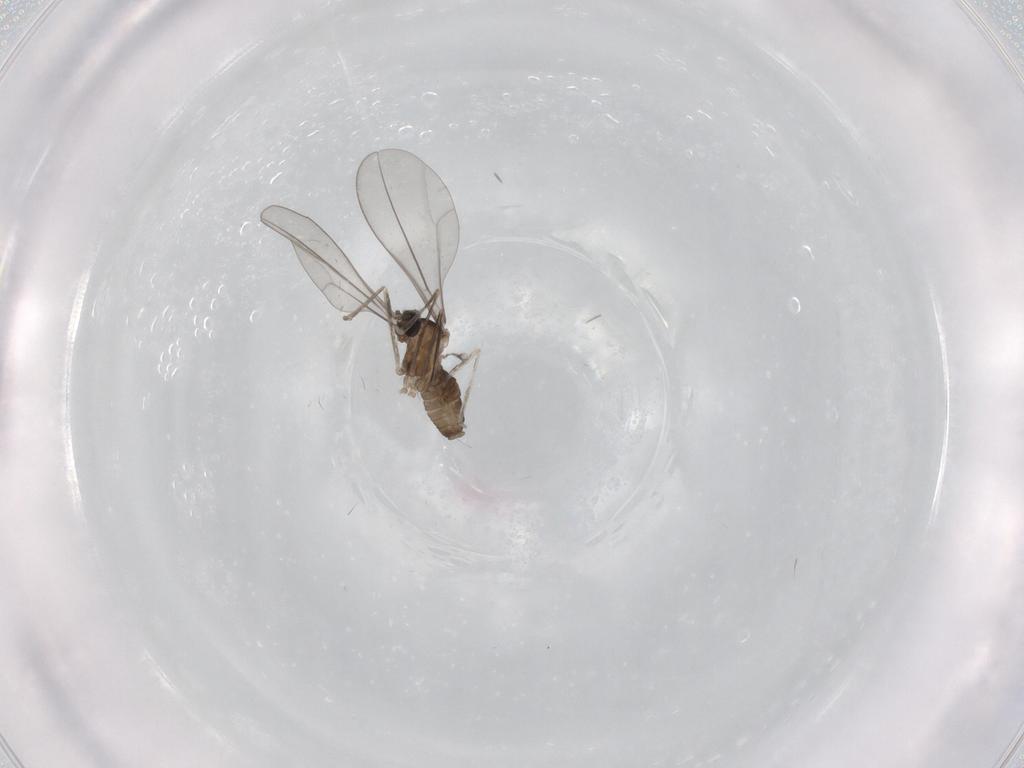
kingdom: Animalia
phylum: Arthropoda
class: Insecta
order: Diptera
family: Cecidomyiidae
